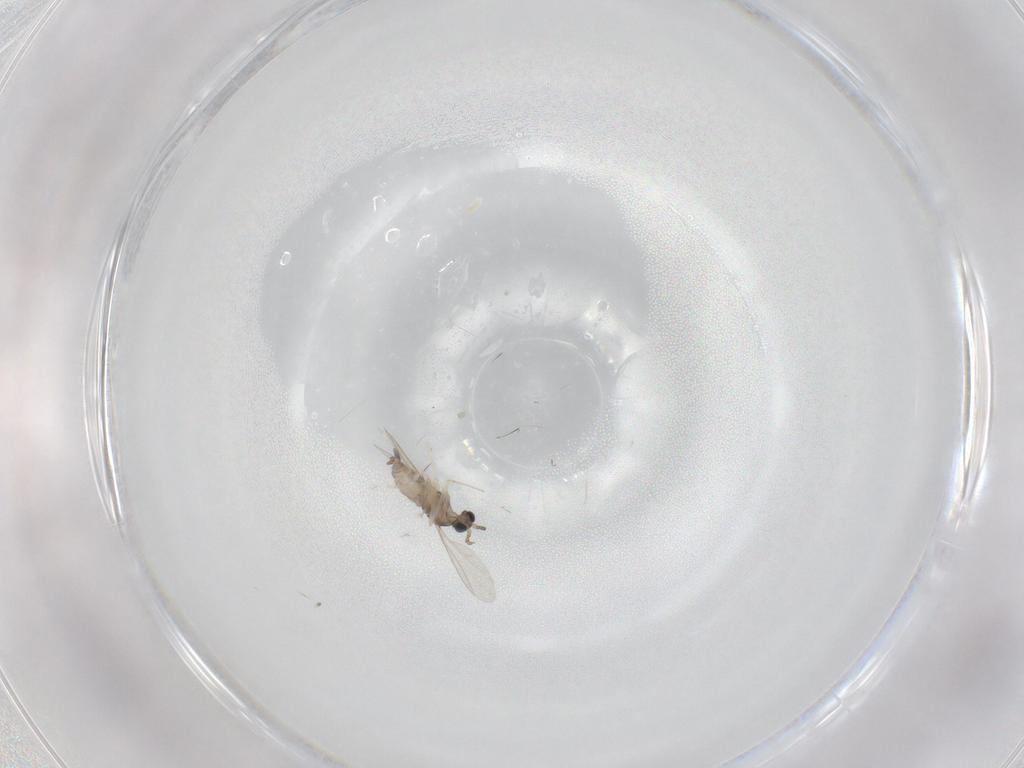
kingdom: Animalia
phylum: Arthropoda
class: Insecta
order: Diptera
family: Cecidomyiidae
